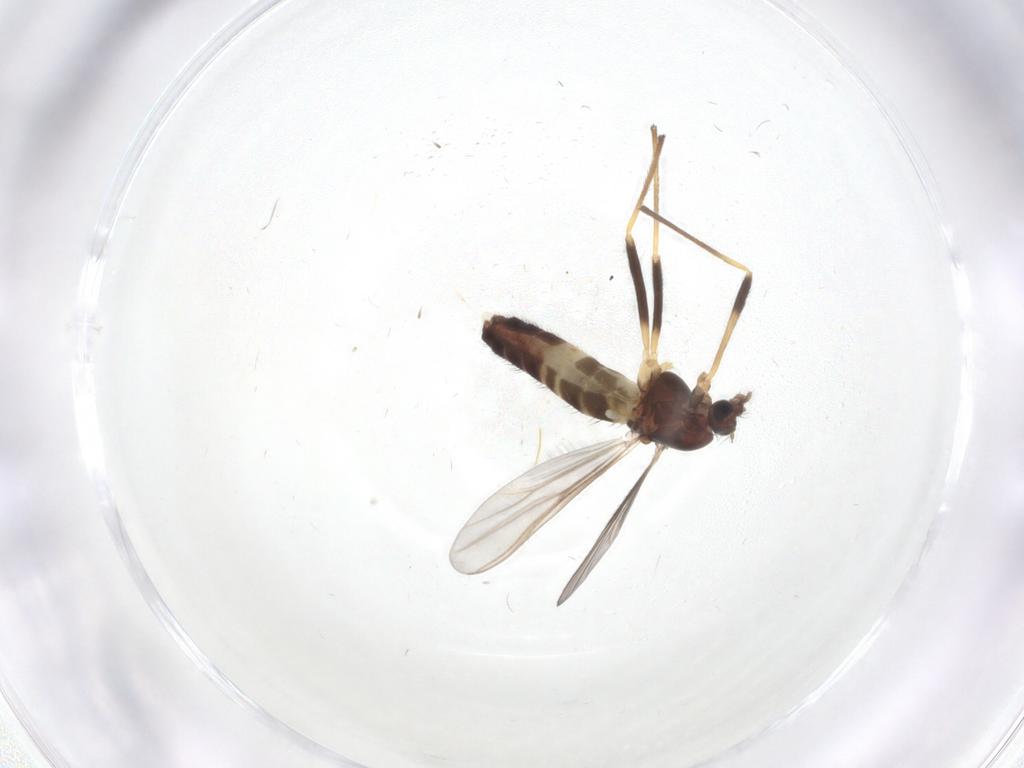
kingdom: Animalia
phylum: Arthropoda
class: Insecta
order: Diptera
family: Chironomidae
